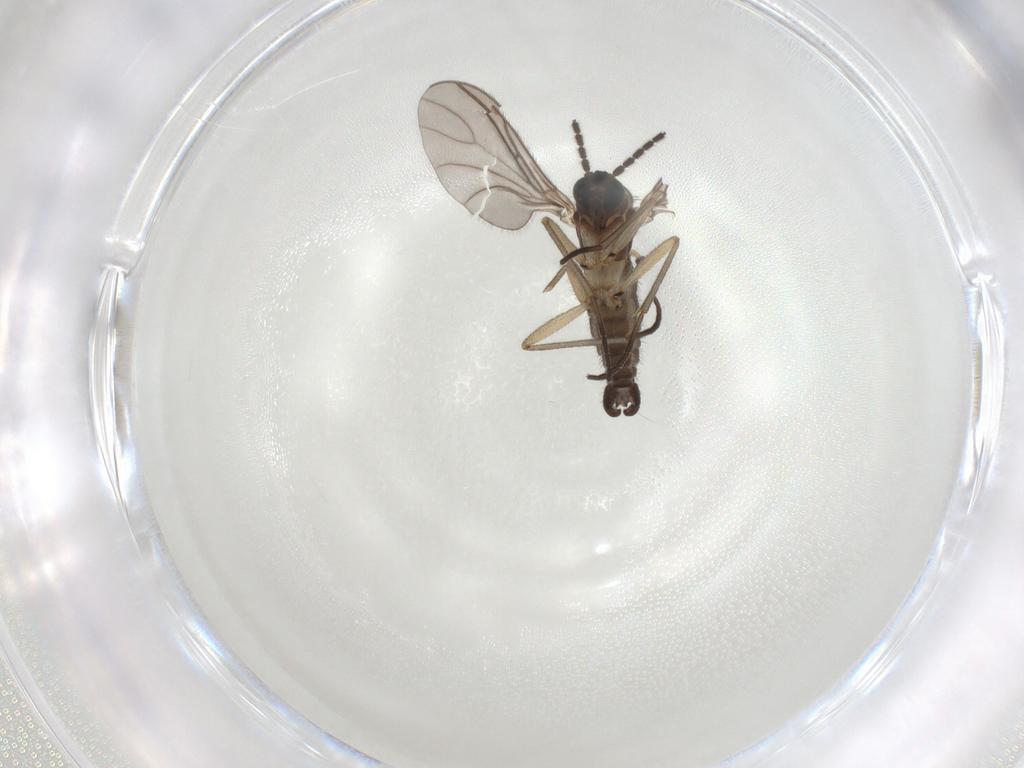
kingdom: Animalia
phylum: Arthropoda
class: Insecta
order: Diptera
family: Phoridae
